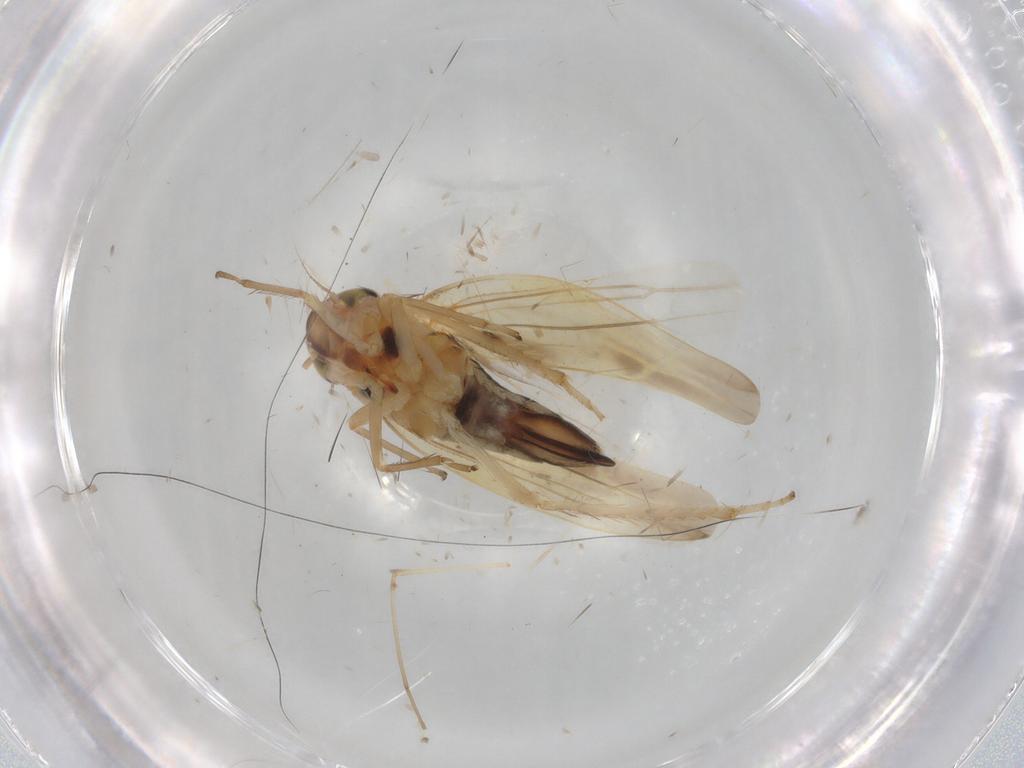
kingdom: Animalia
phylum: Arthropoda
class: Insecta
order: Hemiptera
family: Cicadellidae
